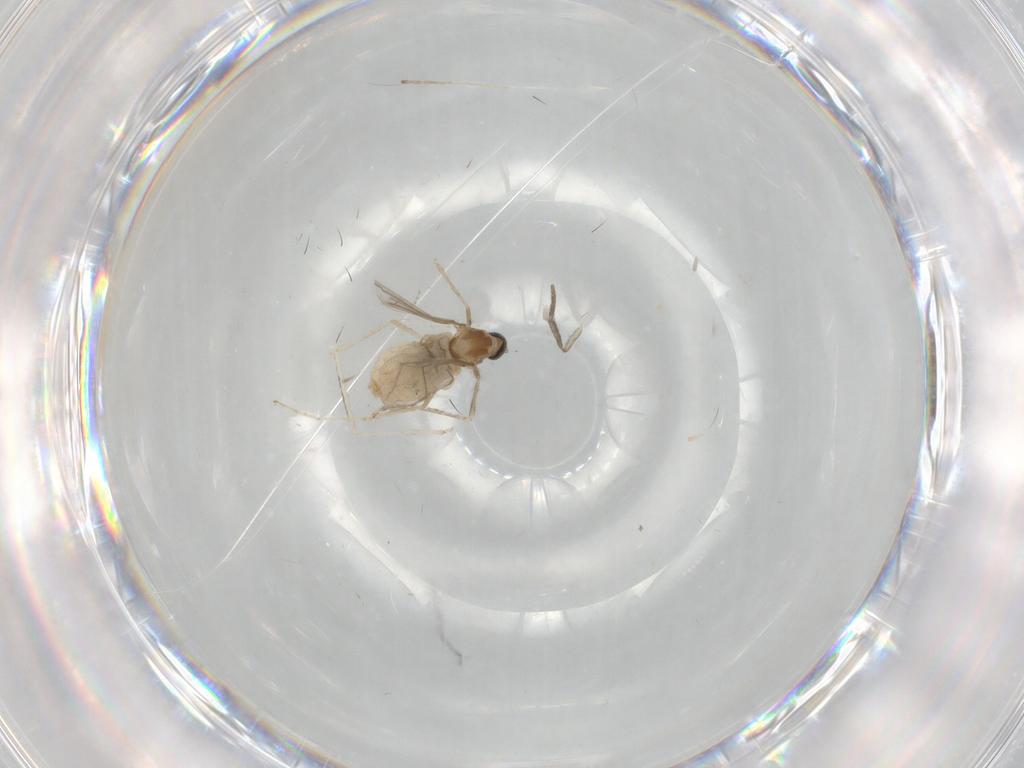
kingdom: Animalia
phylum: Arthropoda
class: Insecta
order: Diptera
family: Cecidomyiidae
